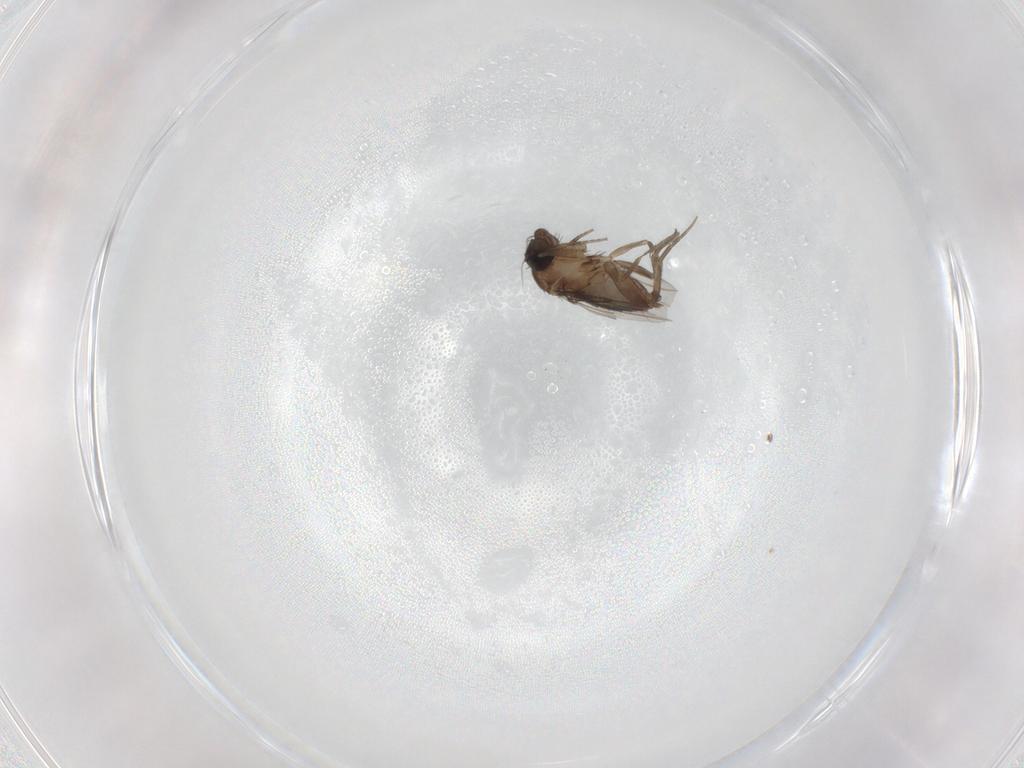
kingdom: Animalia
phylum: Arthropoda
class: Insecta
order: Diptera
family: Phoridae
